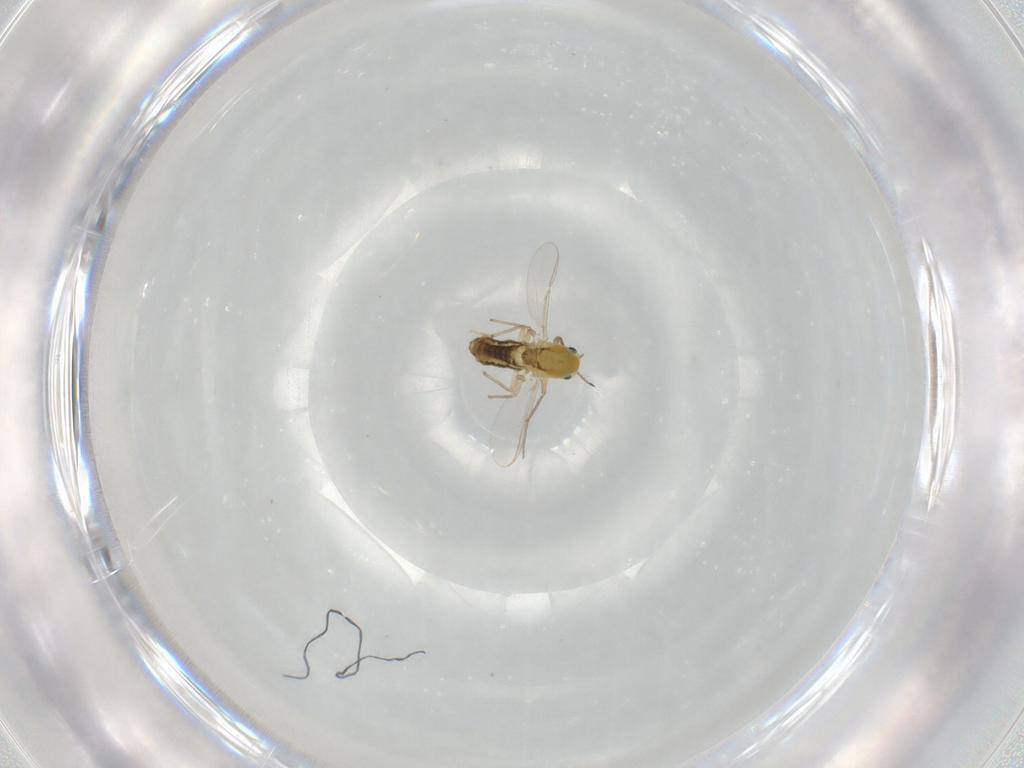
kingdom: Animalia
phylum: Arthropoda
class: Insecta
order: Diptera
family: Chironomidae
